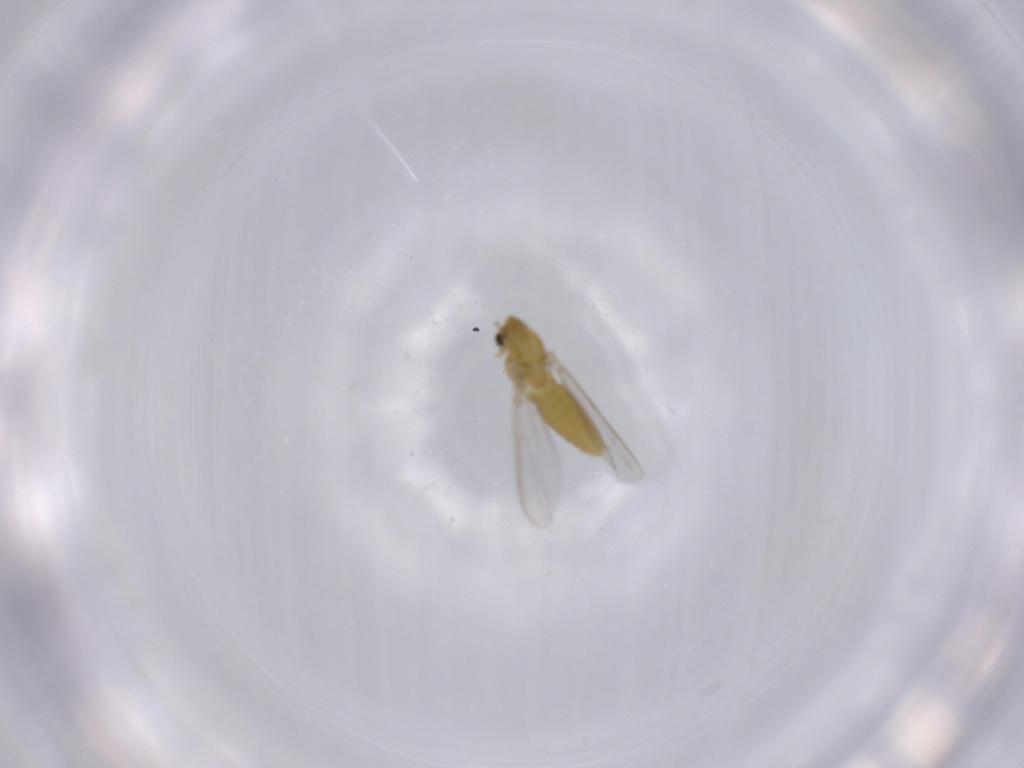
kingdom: Animalia
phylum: Arthropoda
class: Insecta
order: Diptera
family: Chironomidae
